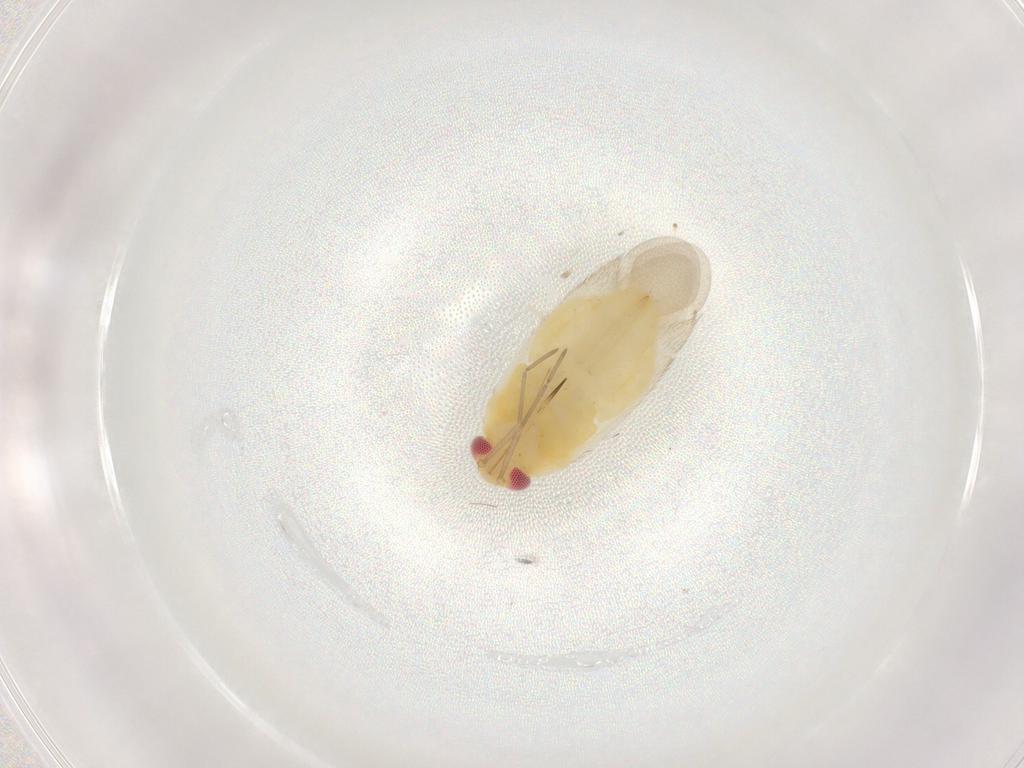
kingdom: Animalia
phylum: Arthropoda
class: Insecta
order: Hemiptera
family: Miridae
